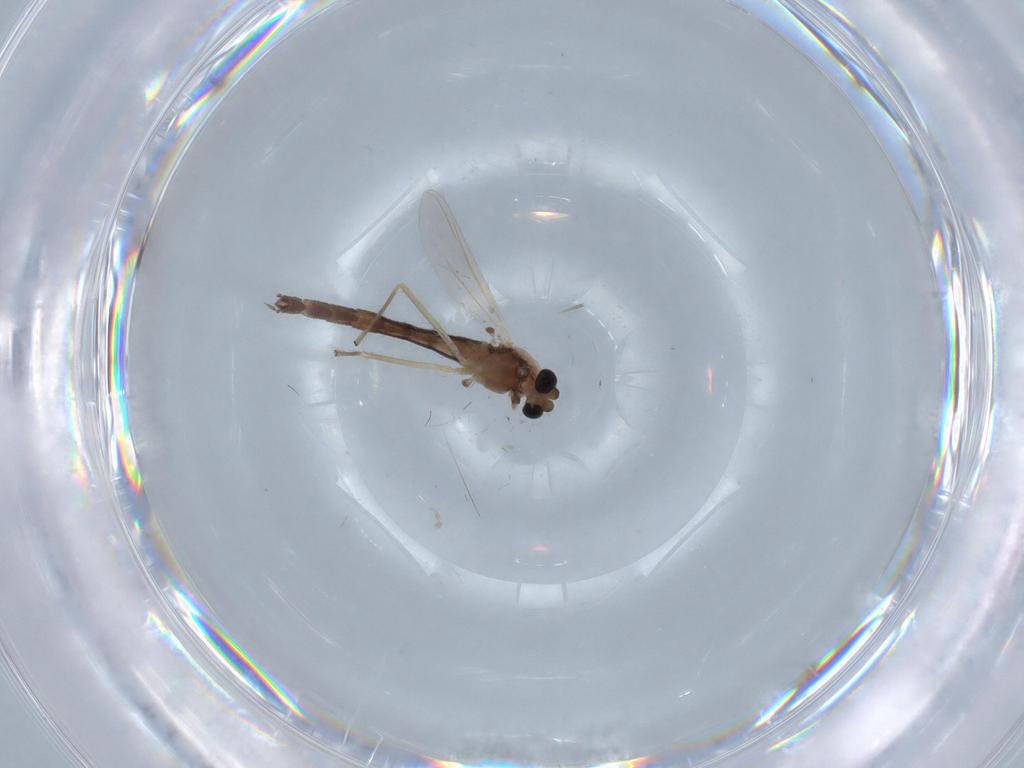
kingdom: Animalia
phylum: Arthropoda
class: Insecta
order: Diptera
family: Chironomidae
